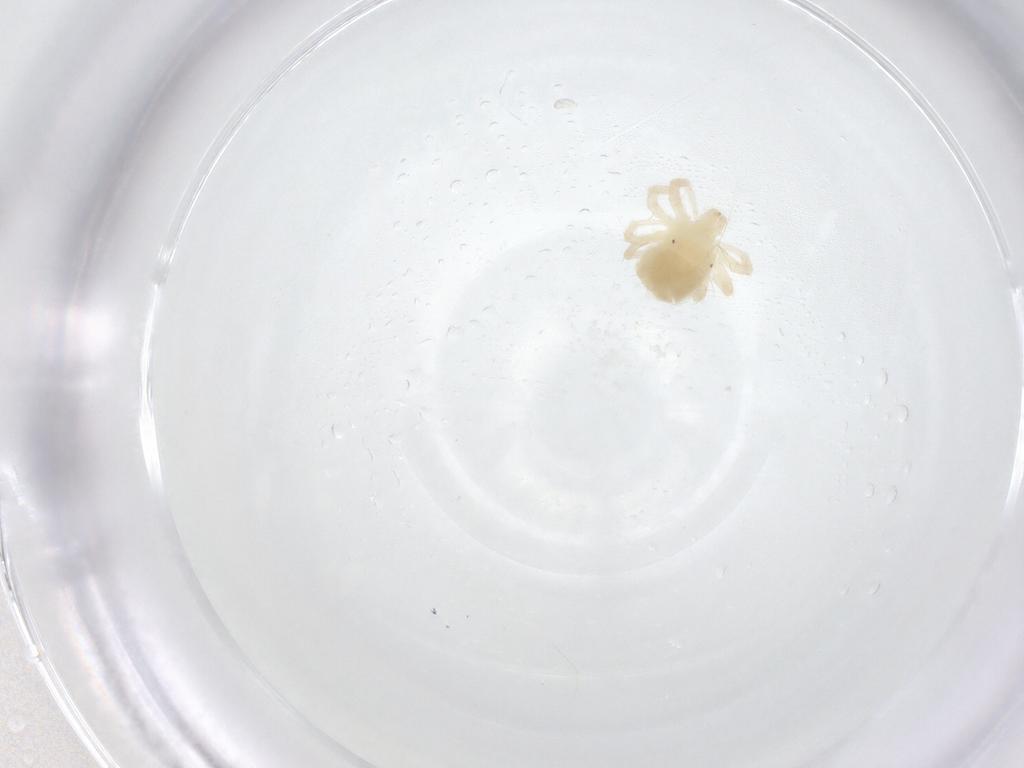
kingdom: Animalia
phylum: Arthropoda
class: Arachnida
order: Trombidiformes
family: Anystidae
